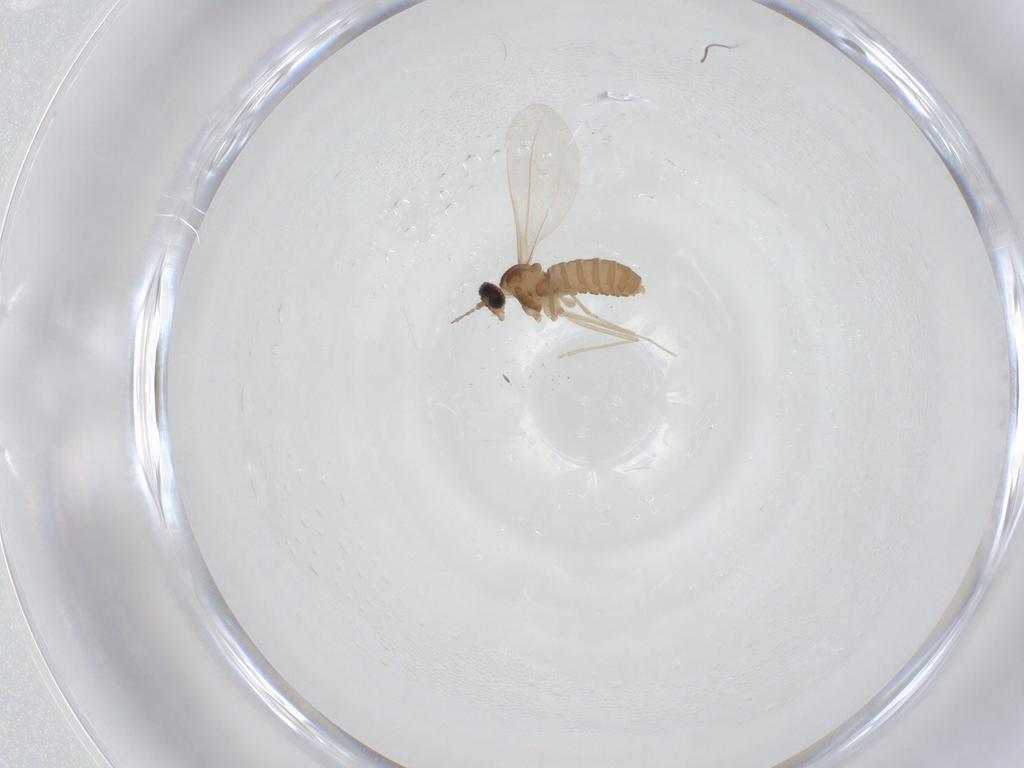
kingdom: Animalia
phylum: Arthropoda
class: Insecta
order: Diptera
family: Cecidomyiidae
